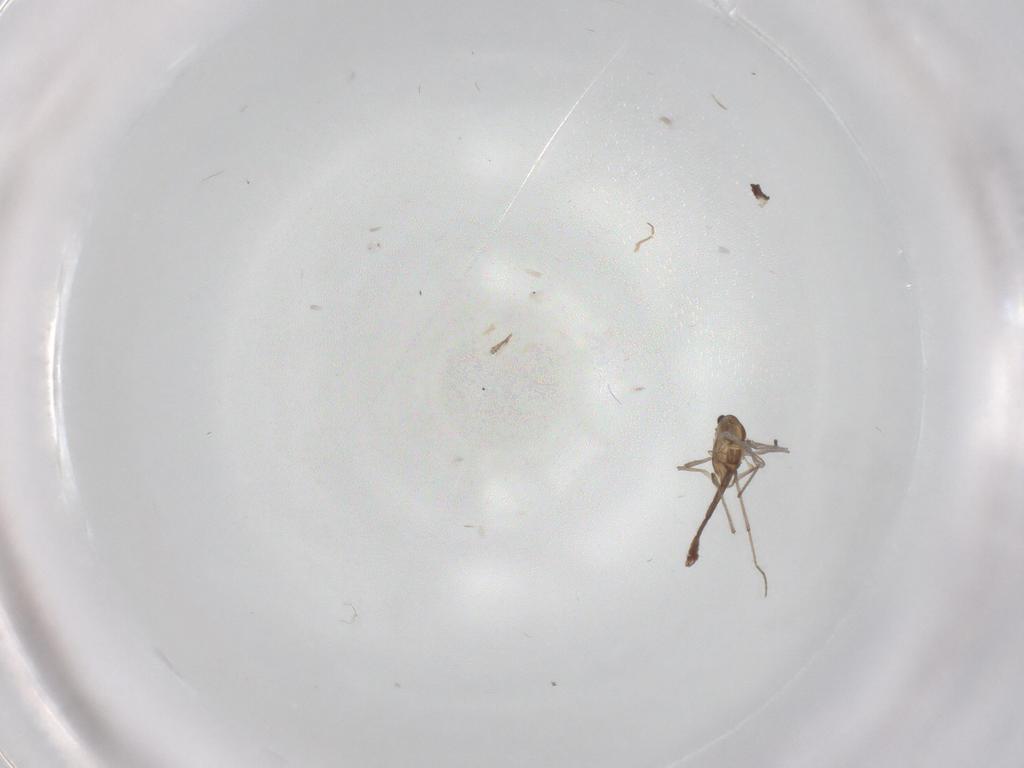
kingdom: Animalia
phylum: Arthropoda
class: Insecta
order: Diptera
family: Chironomidae
